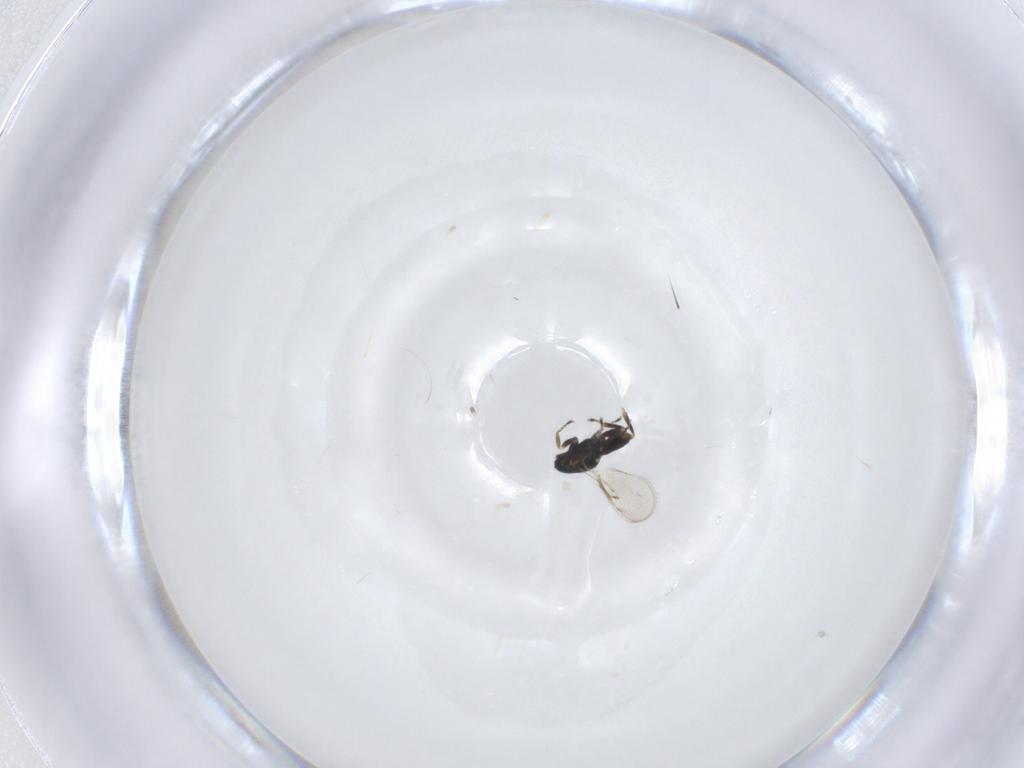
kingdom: Animalia
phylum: Arthropoda
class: Insecta
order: Hymenoptera
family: Eulophidae
